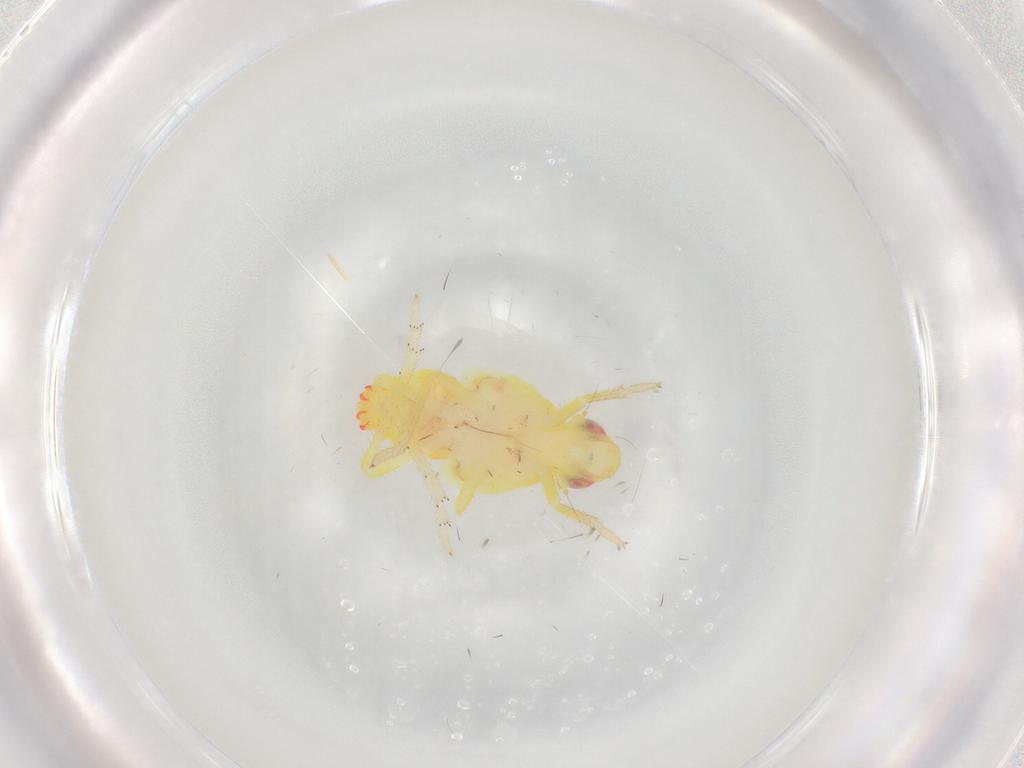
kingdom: Animalia
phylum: Arthropoda
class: Insecta
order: Hemiptera
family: Tropiduchidae
